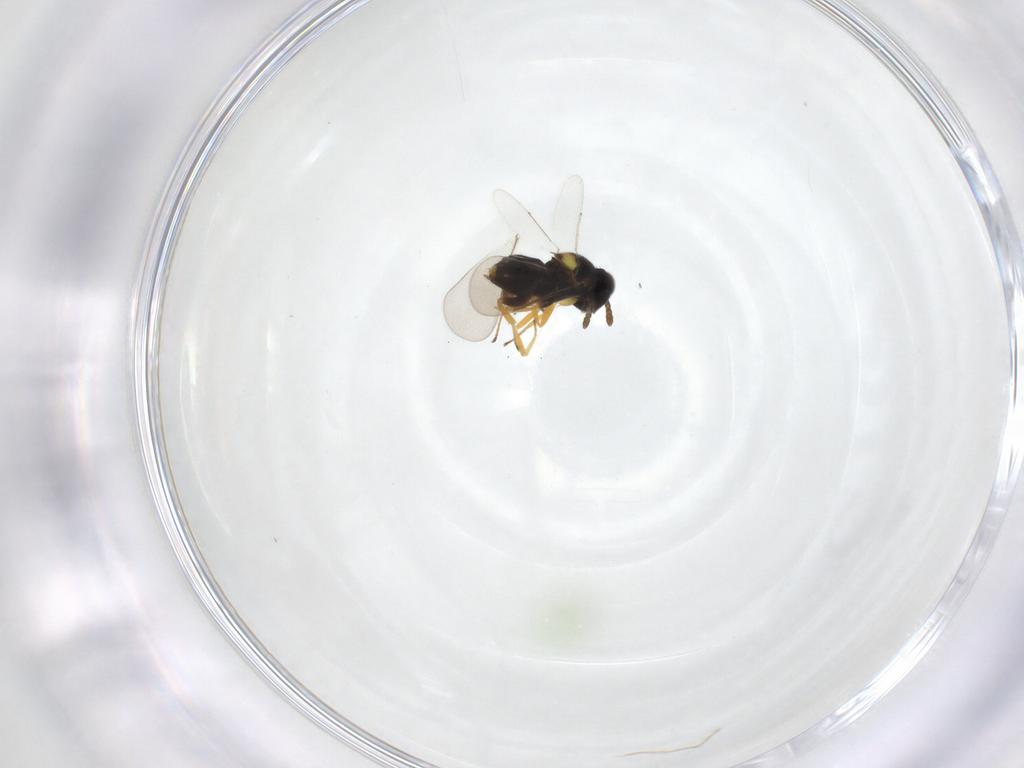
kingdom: Animalia
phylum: Arthropoda
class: Insecta
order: Hymenoptera
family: Aphelinidae
